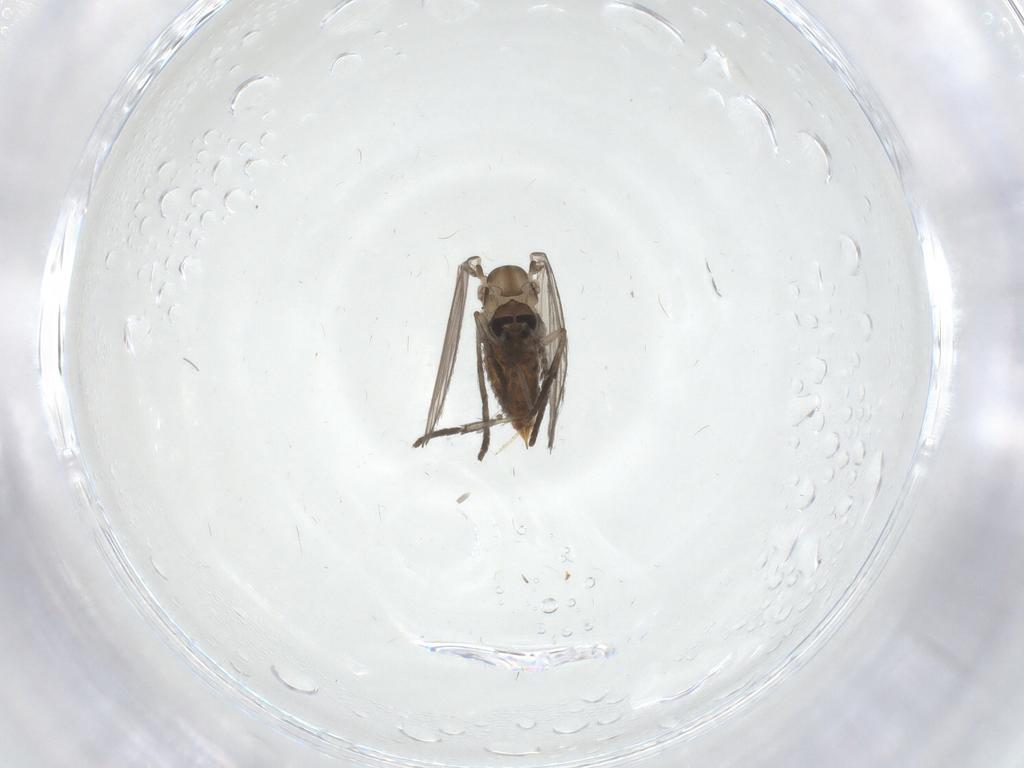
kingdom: Animalia
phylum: Arthropoda
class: Insecta
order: Diptera
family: Psychodidae
